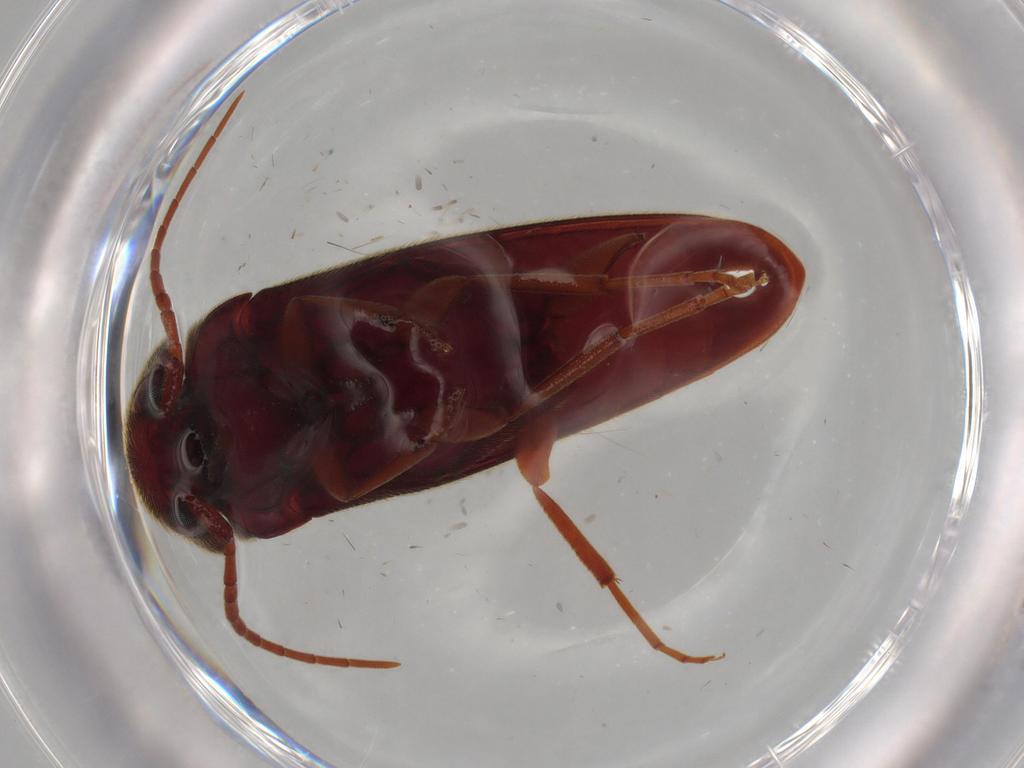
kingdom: Animalia
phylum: Arthropoda
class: Insecta
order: Coleoptera
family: Eucnemidae
